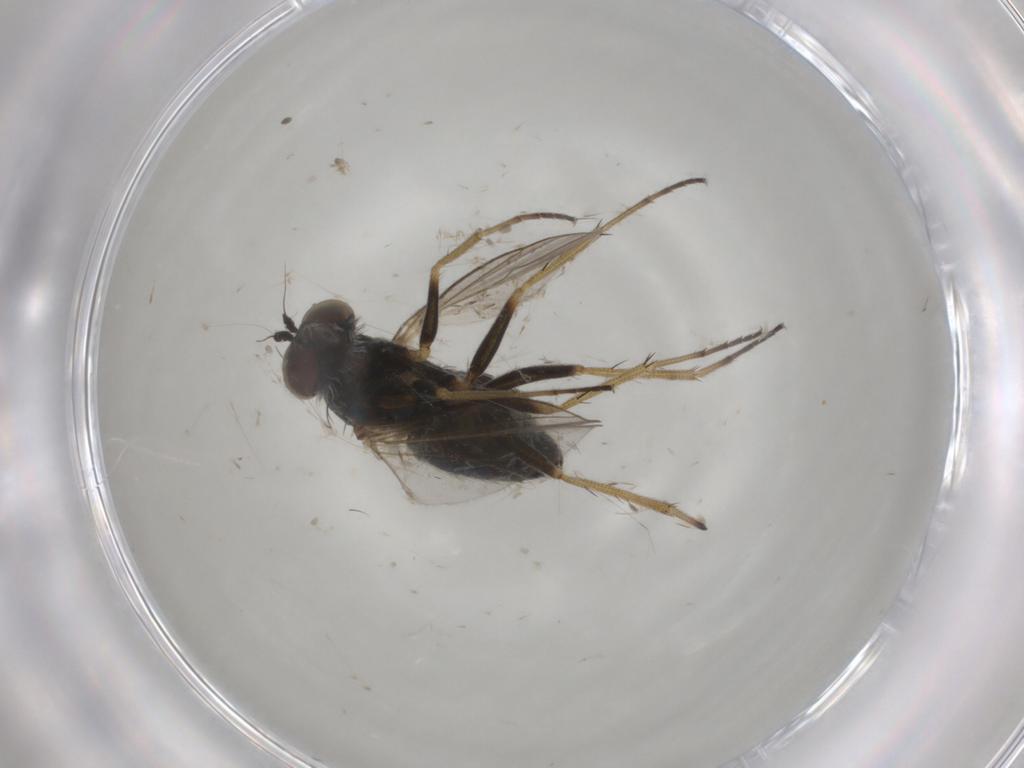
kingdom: Animalia
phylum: Arthropoda
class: Insecta
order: Diptera
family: Dolichopodidae
